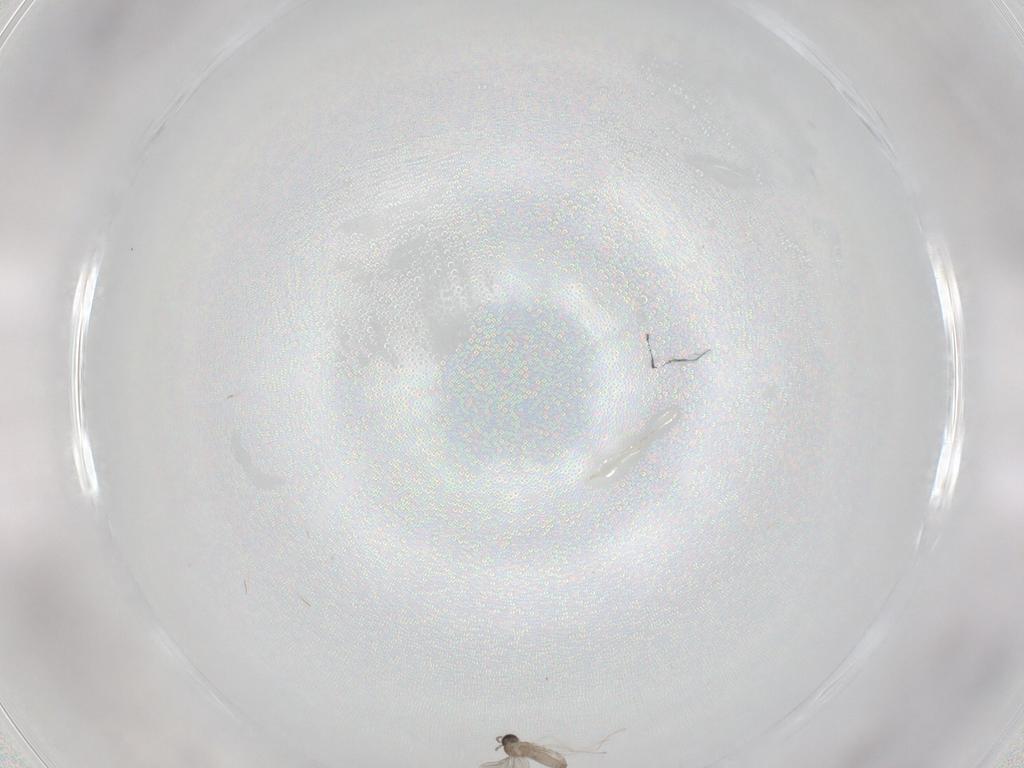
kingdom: Animalia
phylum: Arthropoda
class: Insecta
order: Diptera
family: Cecidomyiidae
